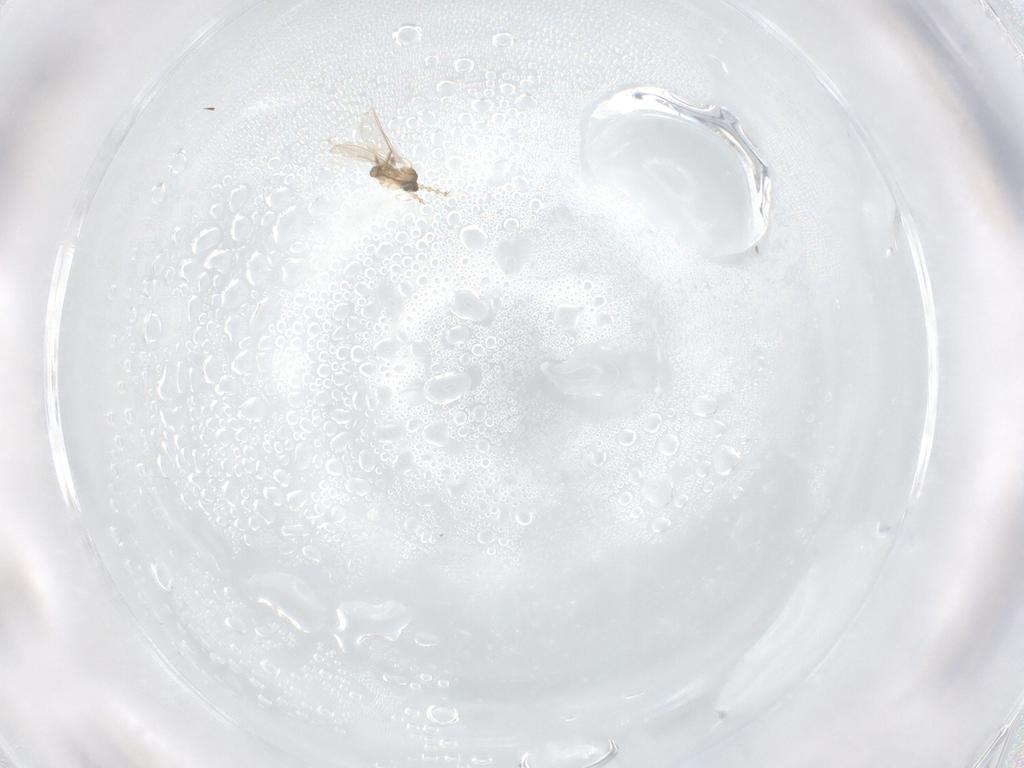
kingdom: Animalia
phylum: Arthropoda
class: Insecta
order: Diptera
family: Cecidomyiidae
